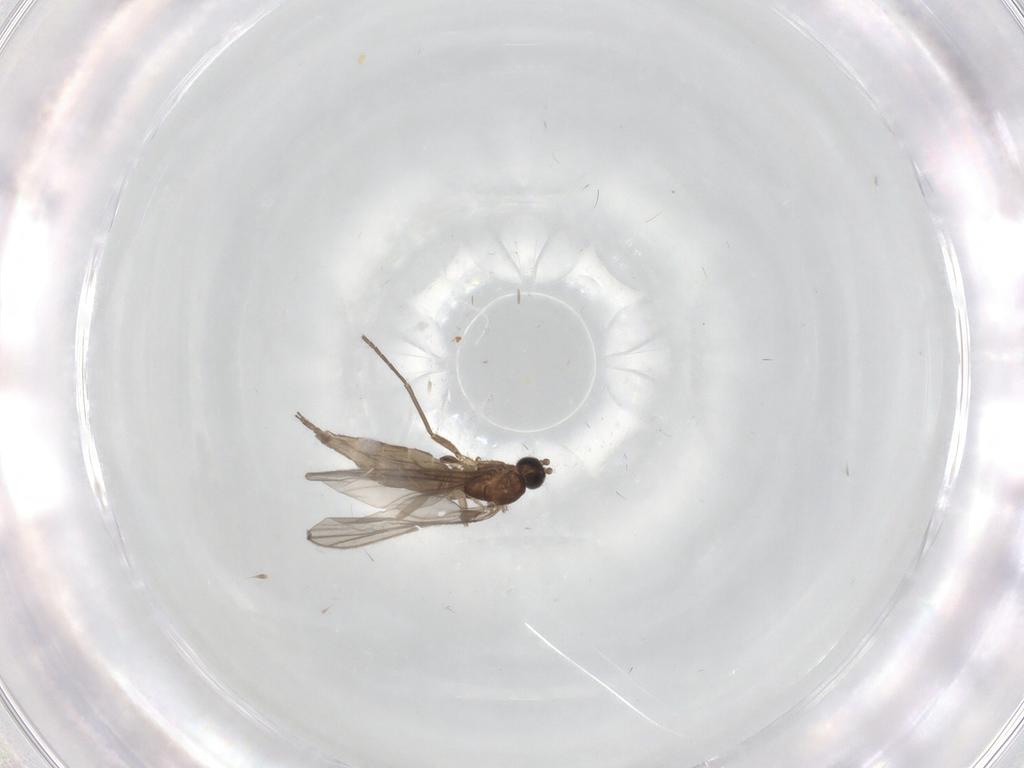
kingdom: Animalia
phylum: Arthropoda
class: Insecta
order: Diptera
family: Sciaridae
